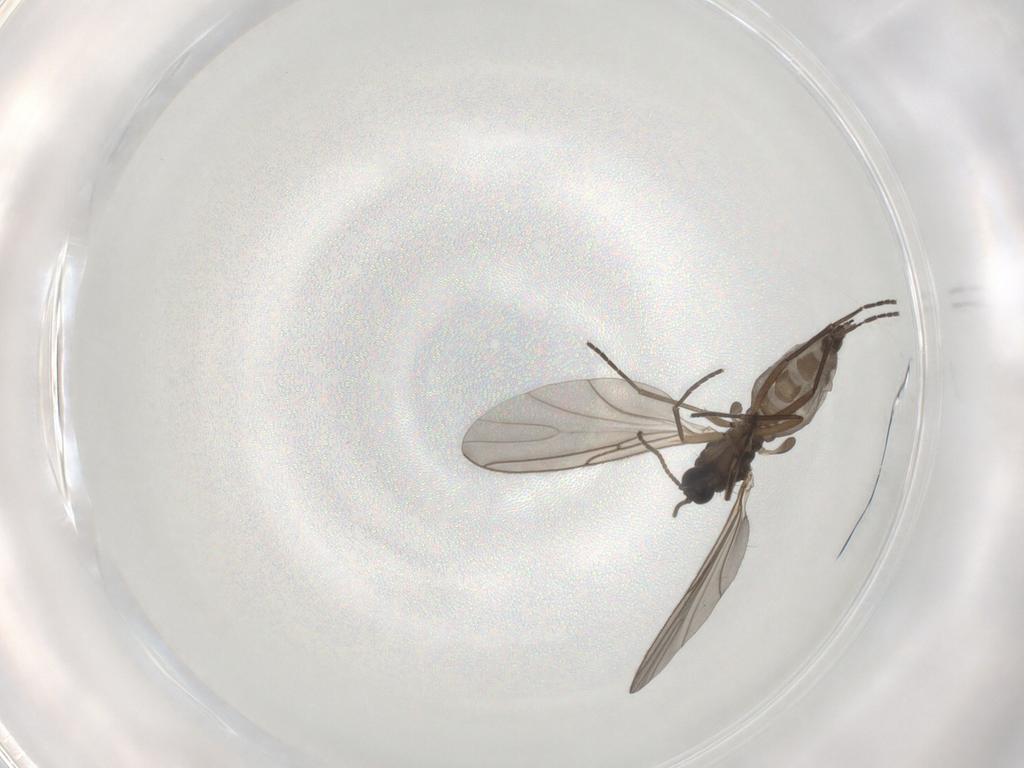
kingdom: Animalia
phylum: Arthropoda
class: Insecta
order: Diptera
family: Sciaridae
